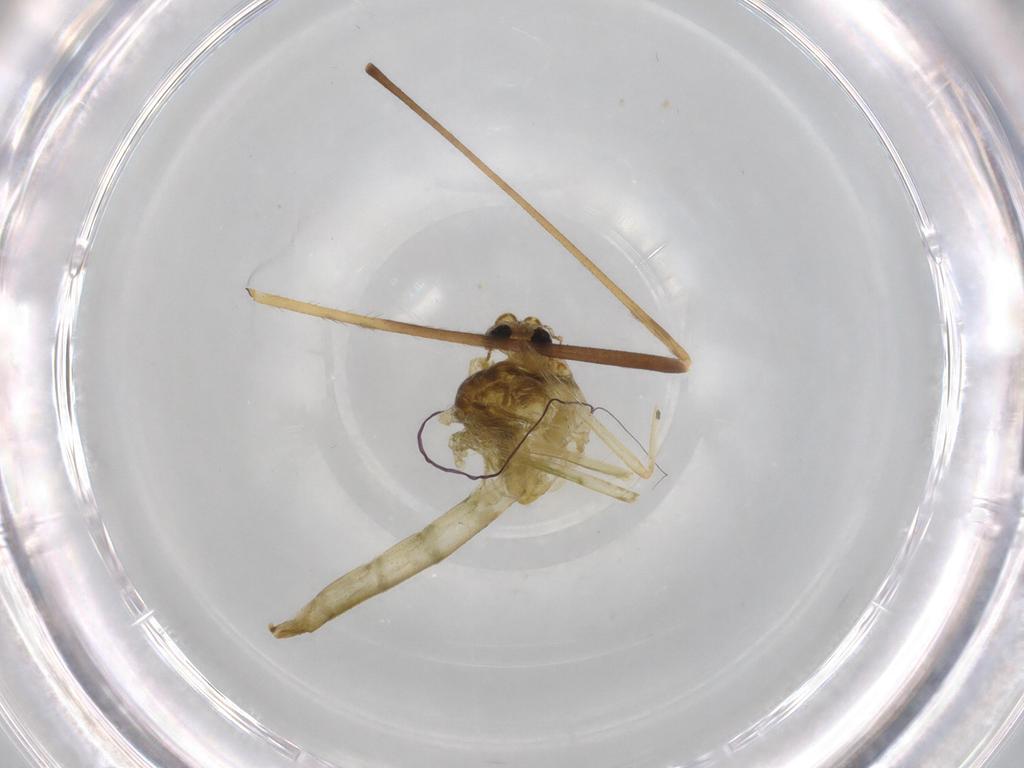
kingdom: Animalia
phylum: Arthropoda
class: Insecta
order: Diptera
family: Limoniidae
